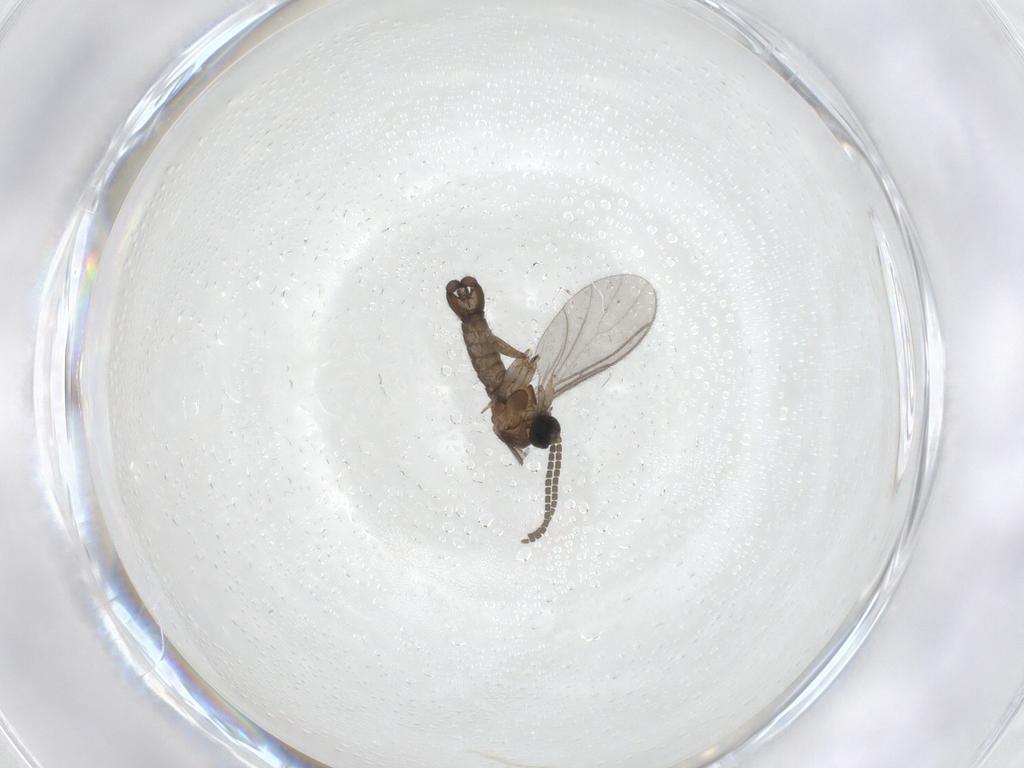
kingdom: Animalia
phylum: Arthropoda
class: Insecta
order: Diptera
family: Sciaridae
